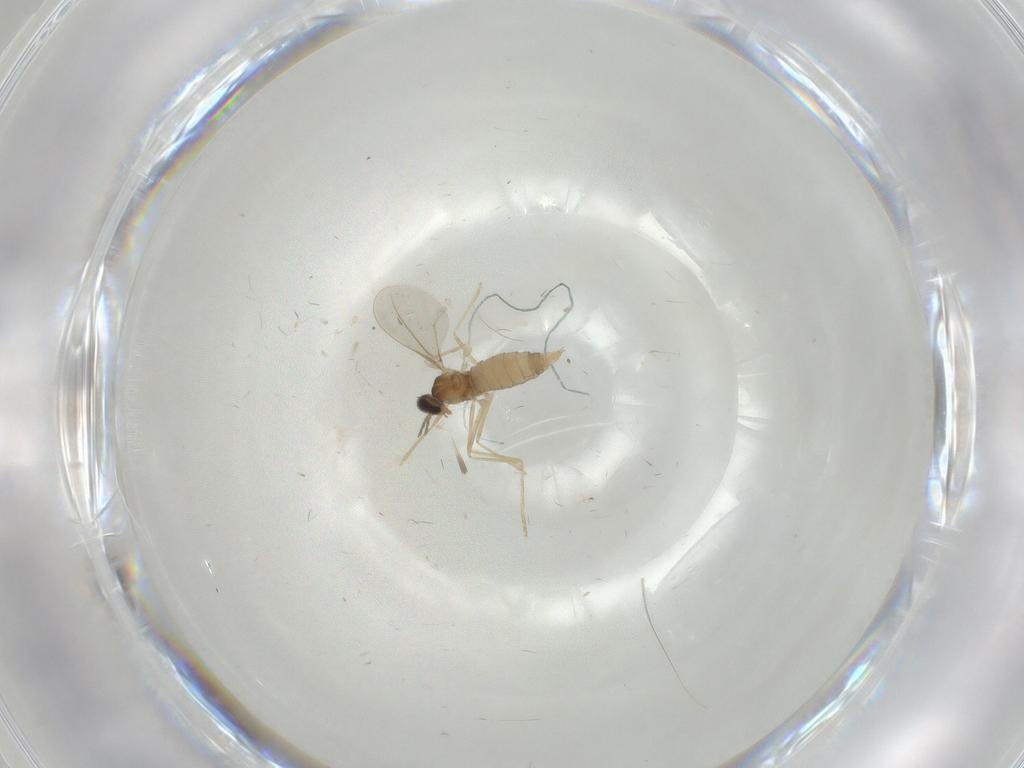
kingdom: Animalia
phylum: Arthropoda
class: Insecta
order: Diptera
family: Cecidomyiidae
